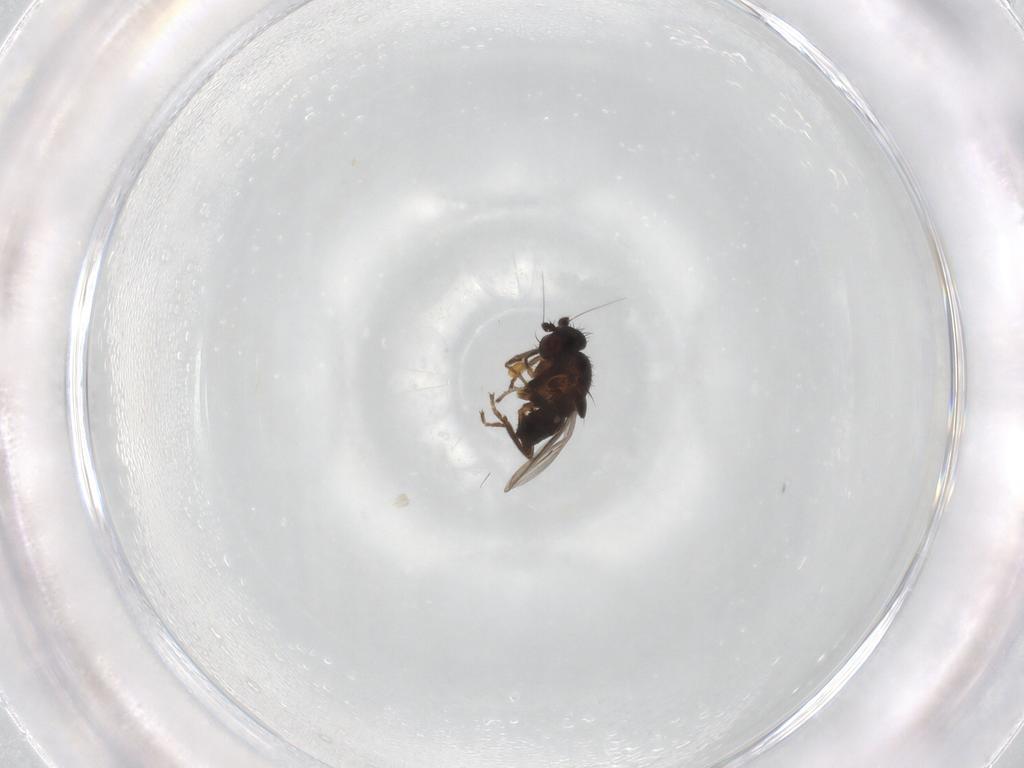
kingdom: Animalia
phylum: Arthropoda
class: Insecta
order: Diptera
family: Sphaeroceridae
